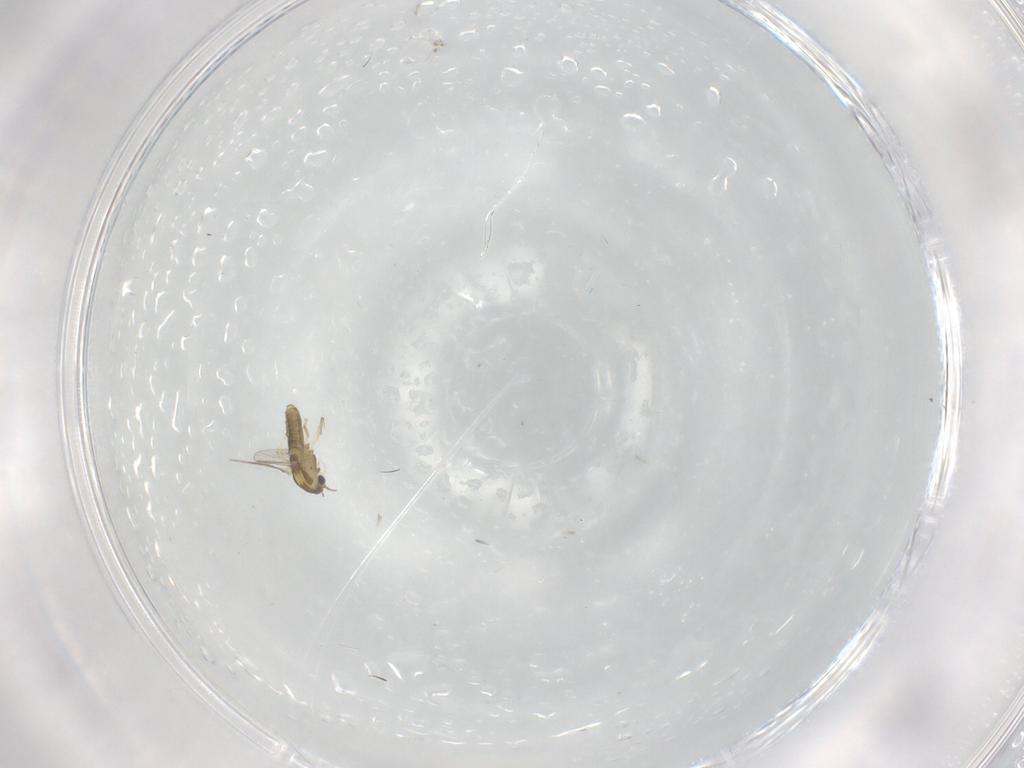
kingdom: Animalia
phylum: Arthropoda
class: Insecta
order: Diptera
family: Chironomidae
